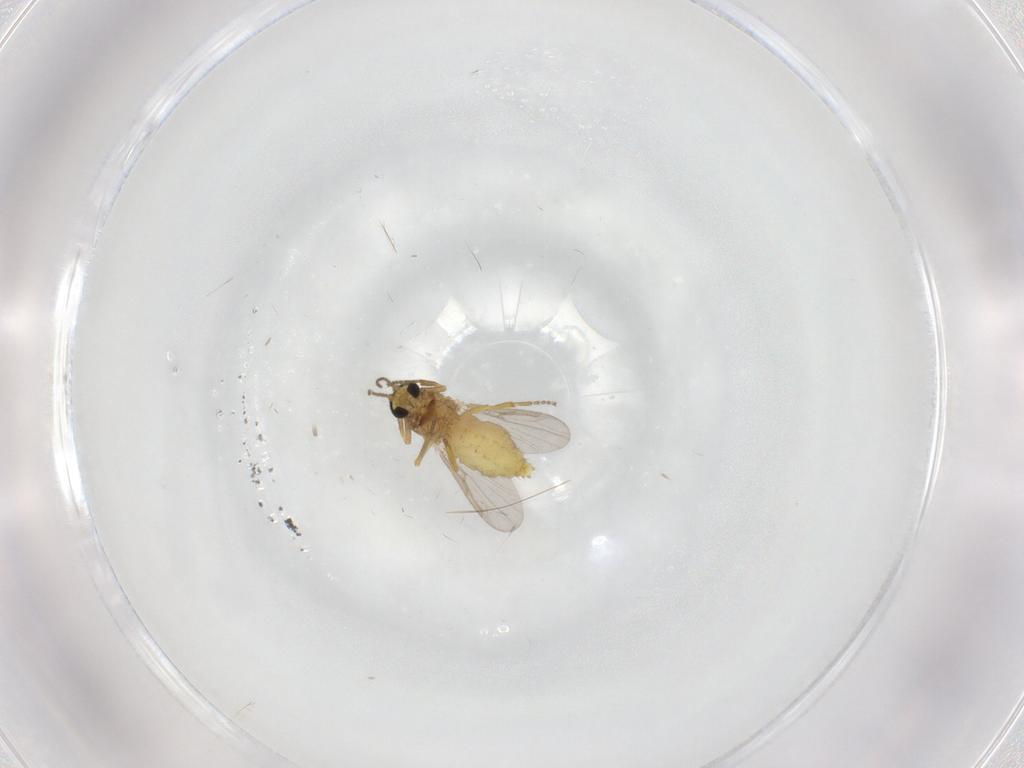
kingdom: Animalia
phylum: Arthropoda
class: Insecta
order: Diptera
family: Ceratopogonidae
